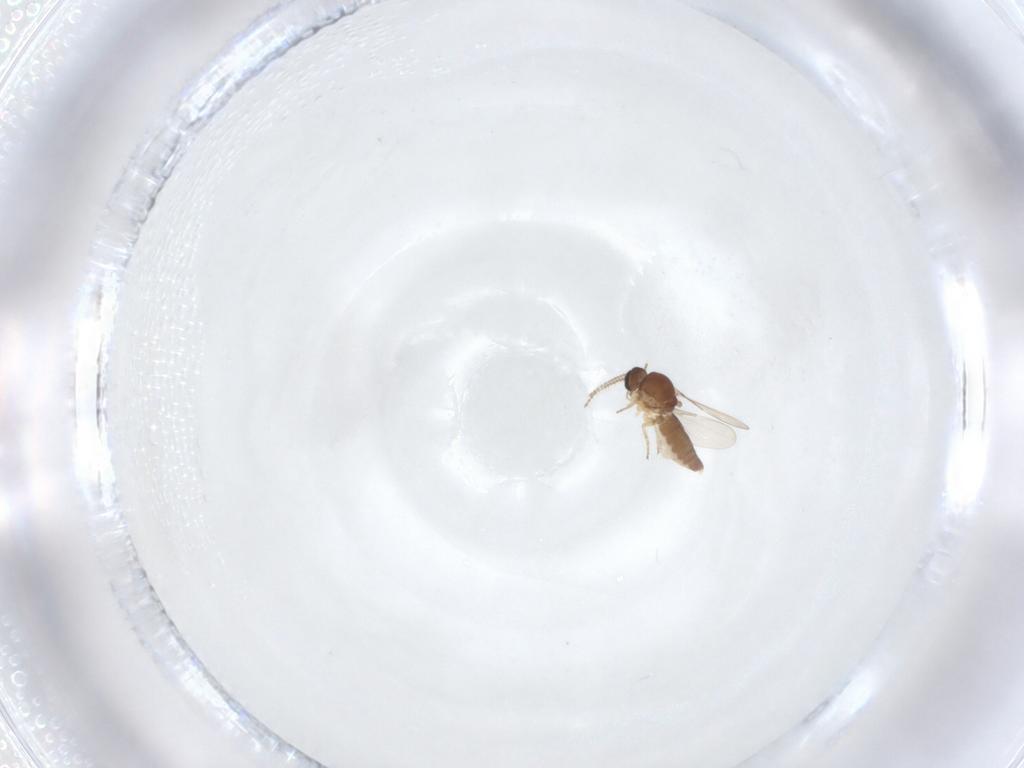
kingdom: Animalia
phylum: Arthropoda
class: Insecta
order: Diptera
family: Ceratopogonidae
